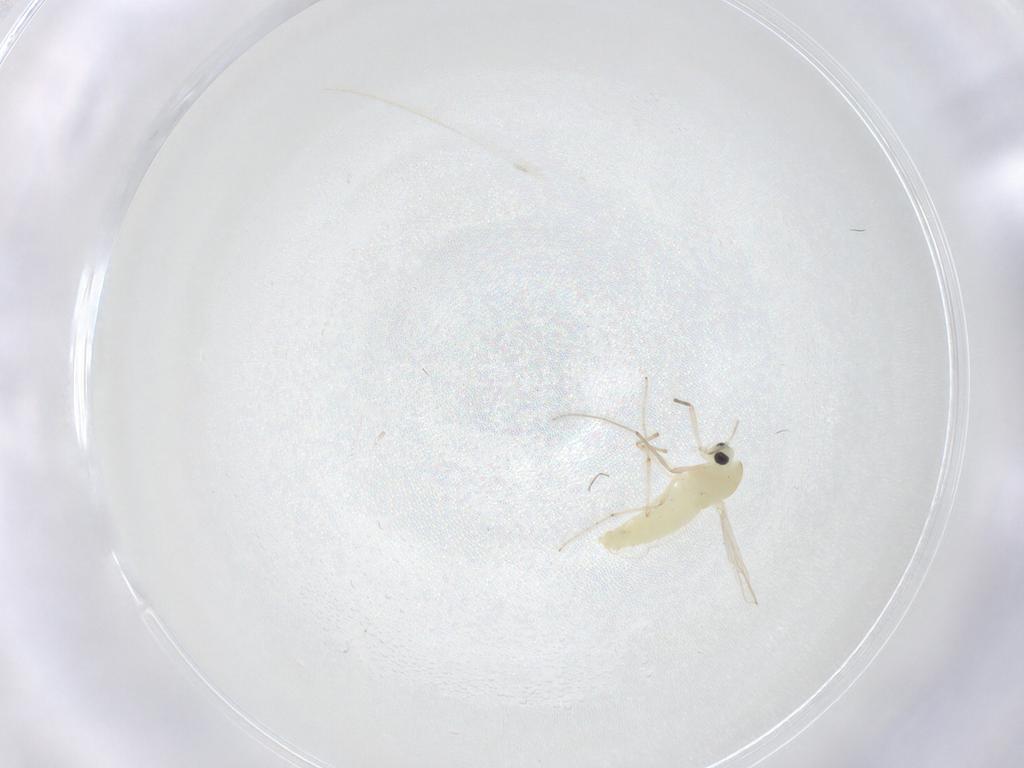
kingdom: Animalia
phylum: Arthropoda
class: Insecta
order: Diptera
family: Chironomidae
